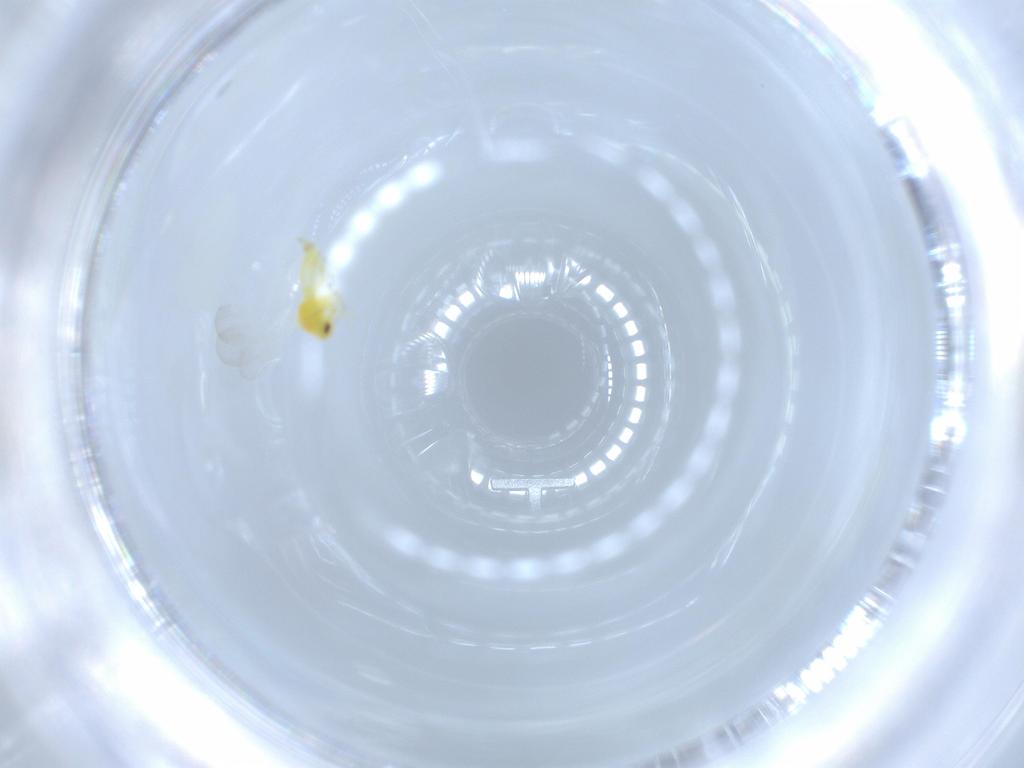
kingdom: Animalia
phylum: Arthropoda
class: Insecta
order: Hemiptera
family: Aleyrodidae
